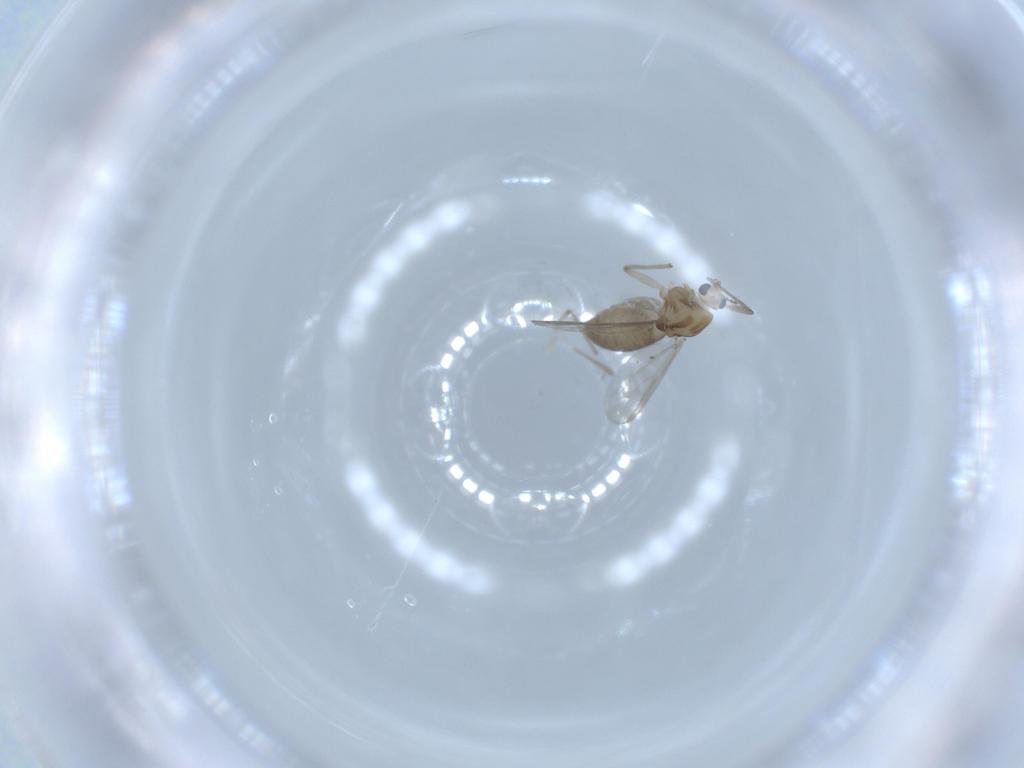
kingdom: Animalia
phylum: Arthropoda
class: Insecta
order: Diptera
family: Chironomidae
